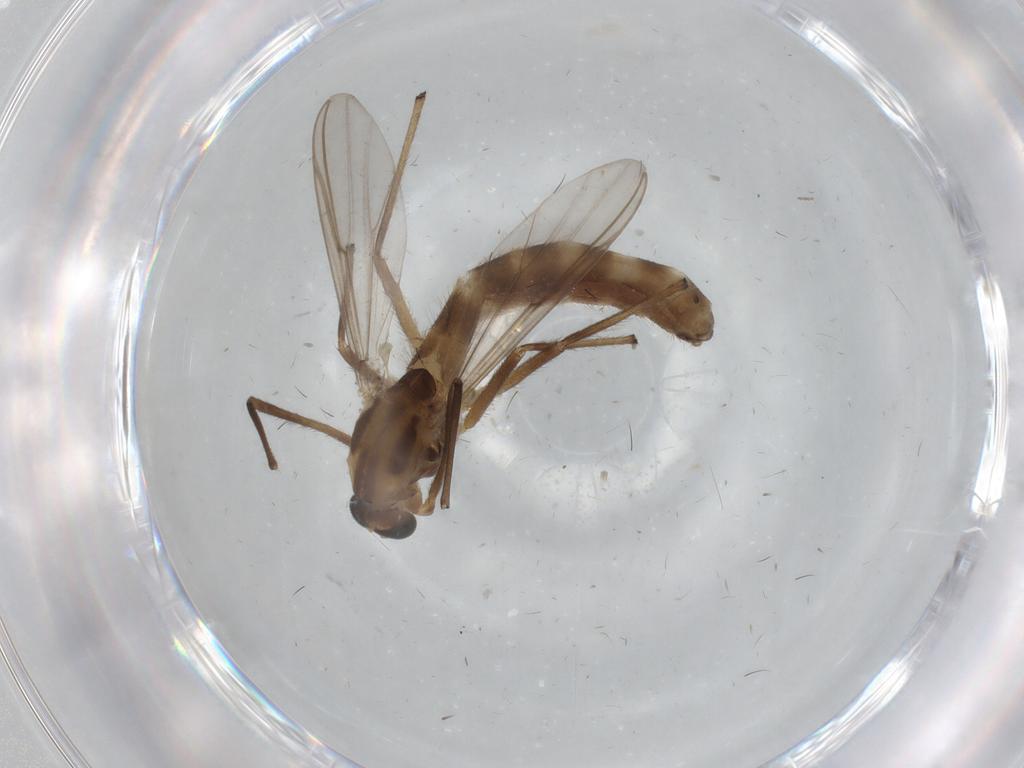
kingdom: Animalia
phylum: Arthropoda
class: Insecta
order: Diptera
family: Chironomidae
